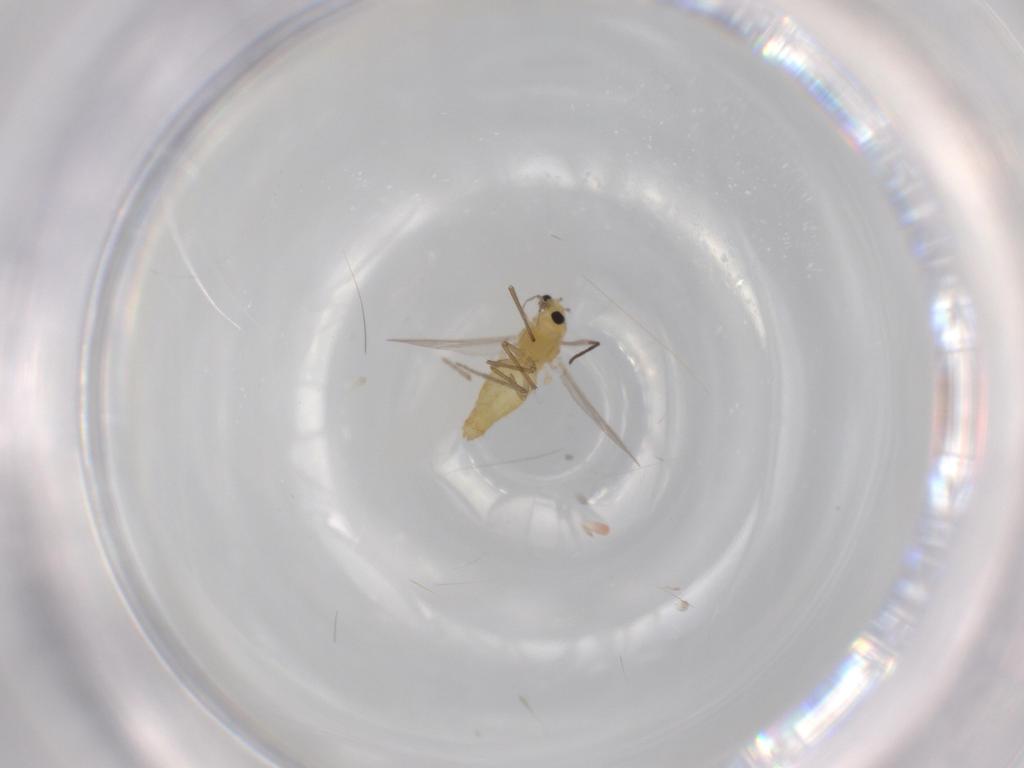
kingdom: Animalia
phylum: Arthropoda
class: Insecta
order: Diptera
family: Chironomidae
